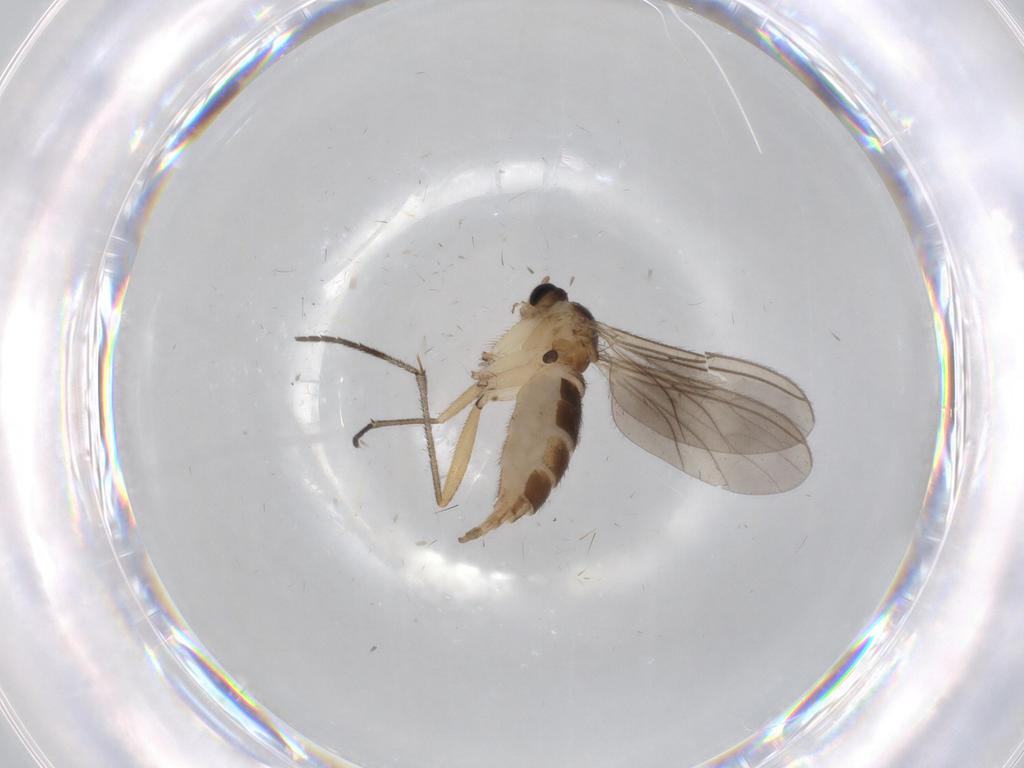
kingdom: Animalia
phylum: Arthropoda
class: Insecta
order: Diptera
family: Sciaridae
